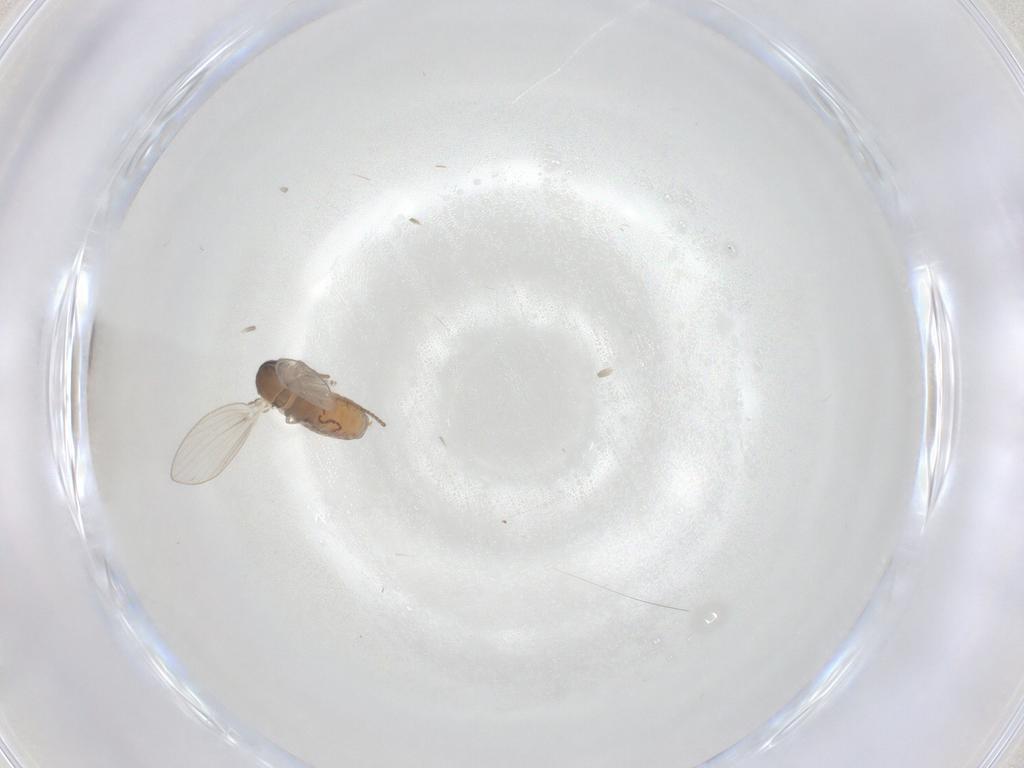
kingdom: Animalia
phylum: Arthropoda
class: Insecta
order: Diptera
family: Psychodidae
